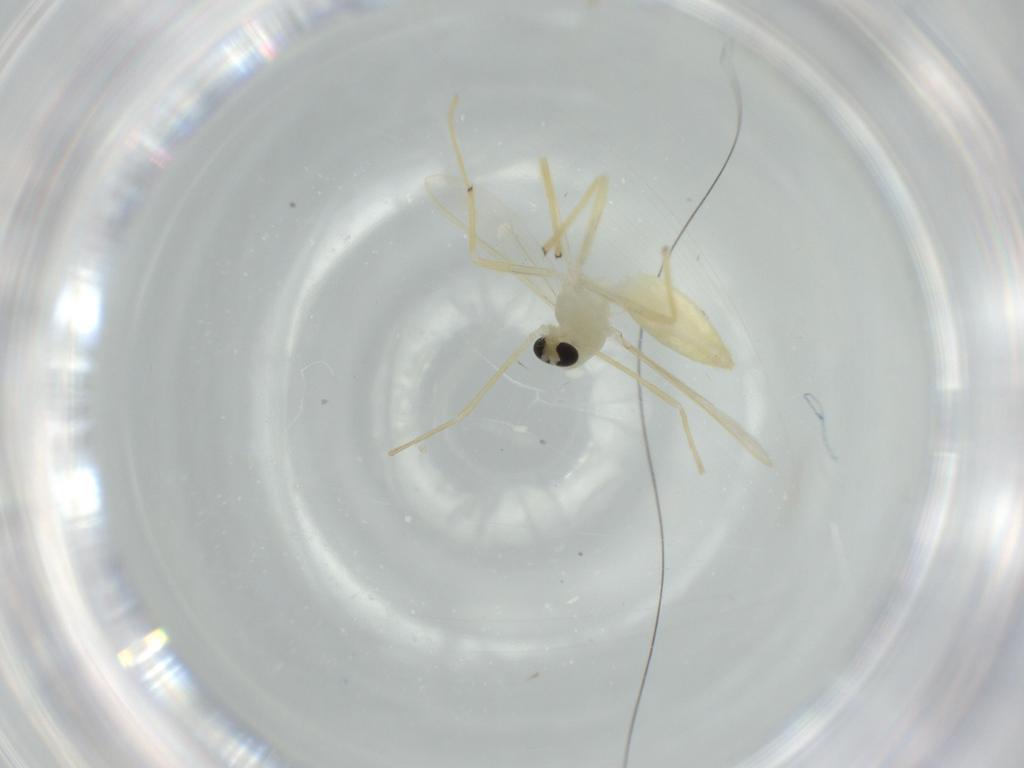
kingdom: Animalia
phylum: Arthropoda
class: Insecta
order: Diptera
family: Chironomidae
